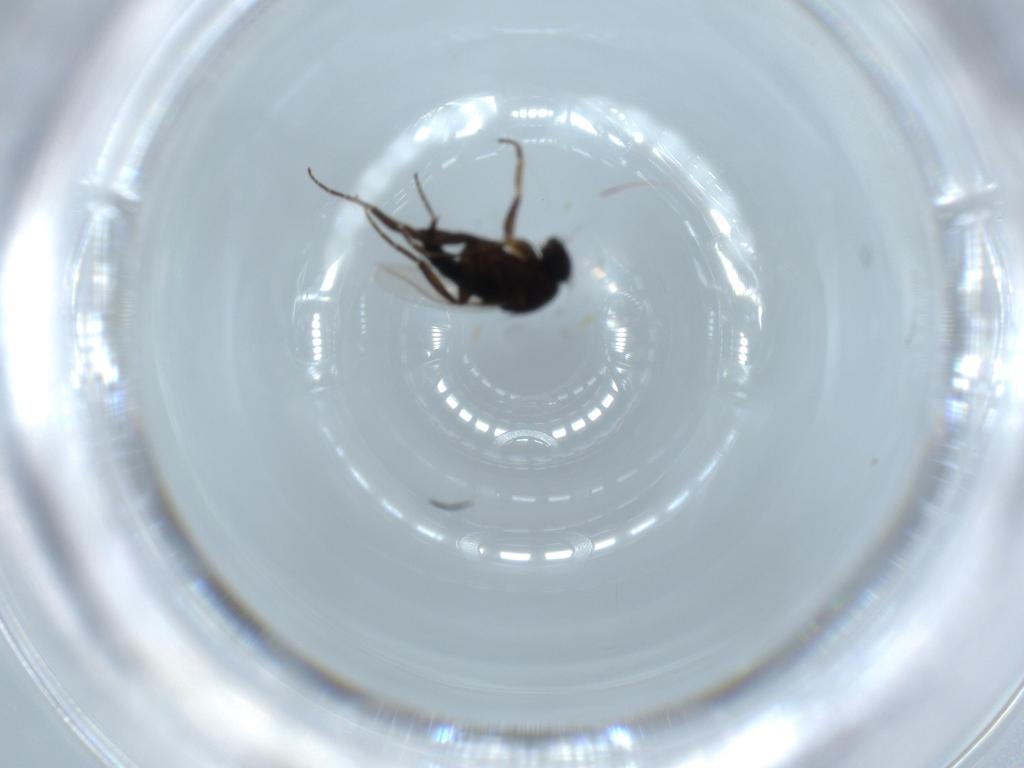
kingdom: Animalia
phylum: Arthropoda
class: Insecta
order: Diptera
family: Phoridae
